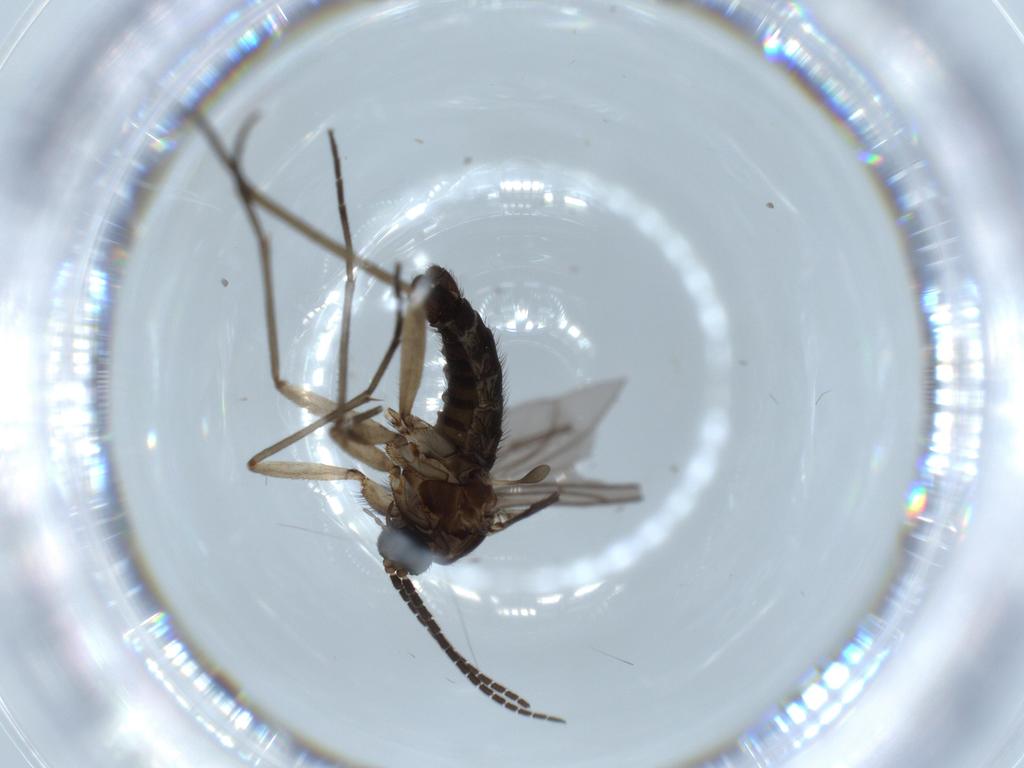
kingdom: Animalia
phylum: Arthropoda
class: Insecta
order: Diptera
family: Sciaridae
